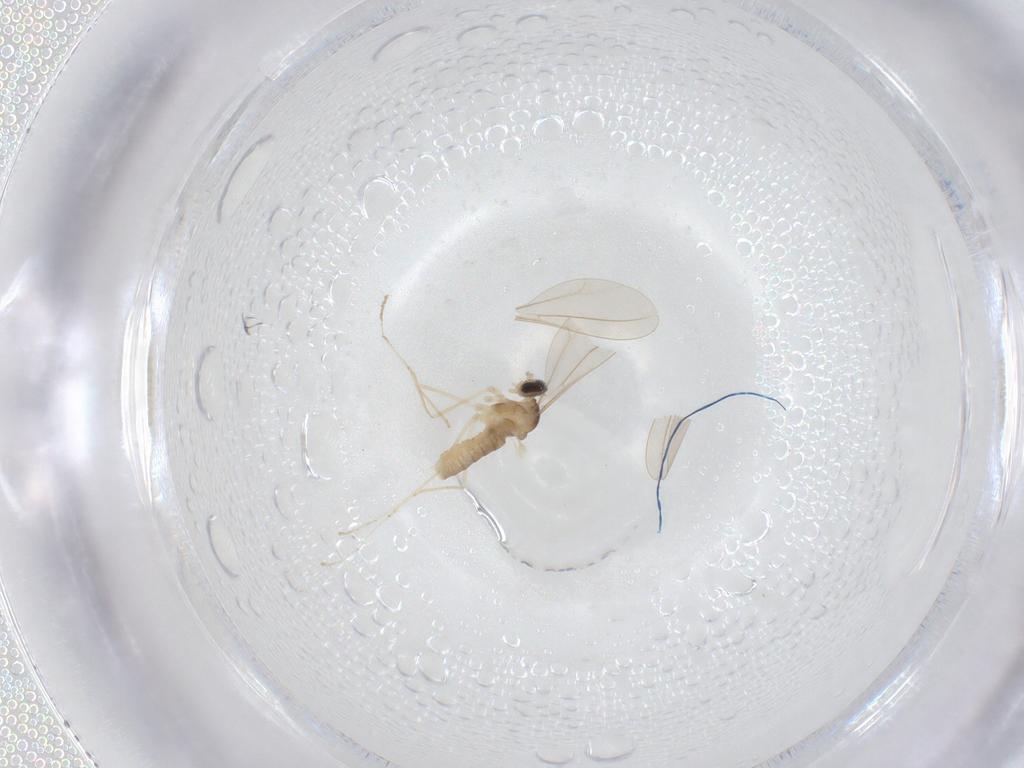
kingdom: Animalia
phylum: Arthropoda
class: Insecta
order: Diptera
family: Cecidomyiidae
